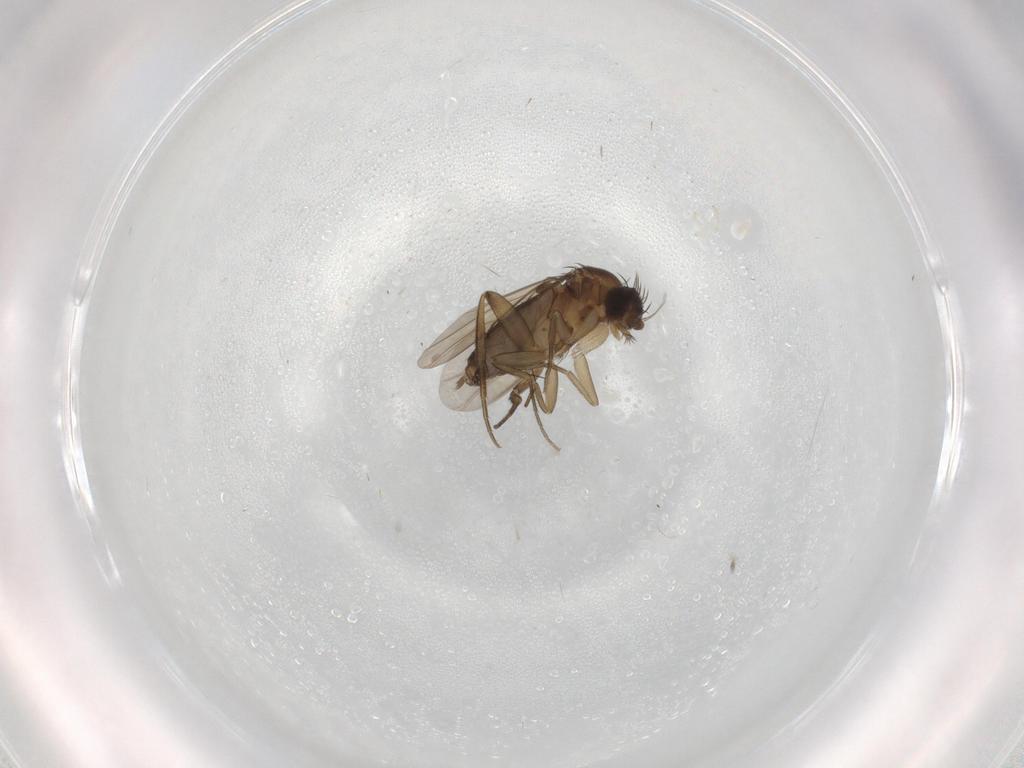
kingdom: Animalia
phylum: Arthropoda
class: Insecta
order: Diptera
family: Phoridae
